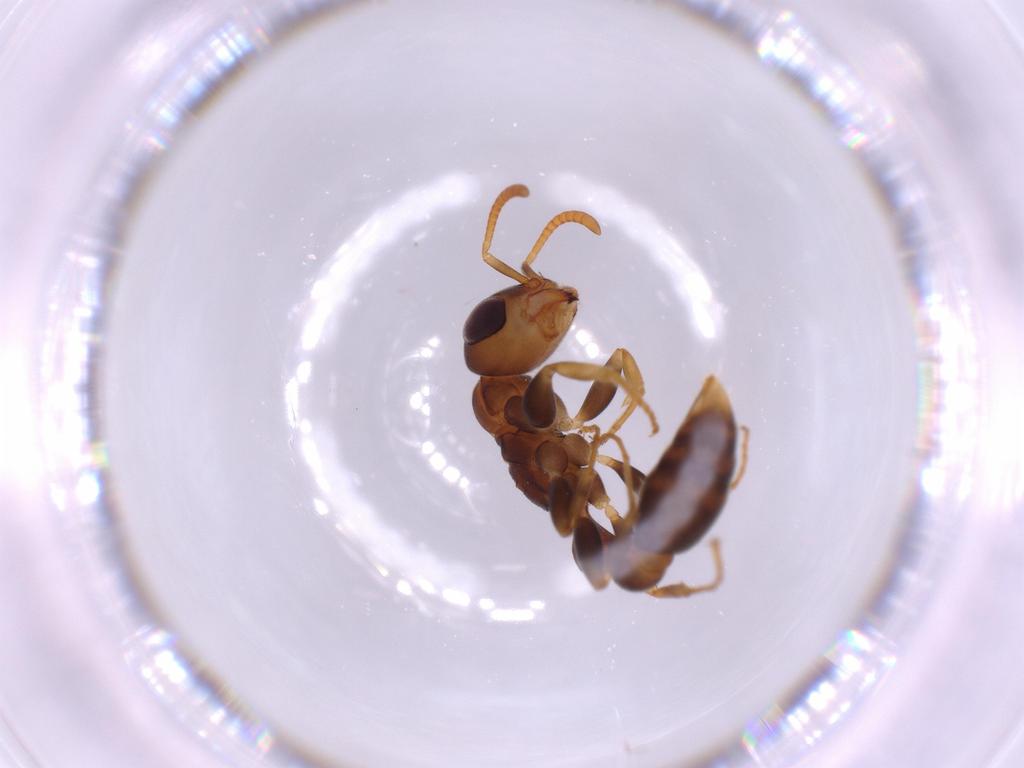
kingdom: Animalia
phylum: Arthropoda
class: Insecta
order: Hymenoptera
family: Formicidae
